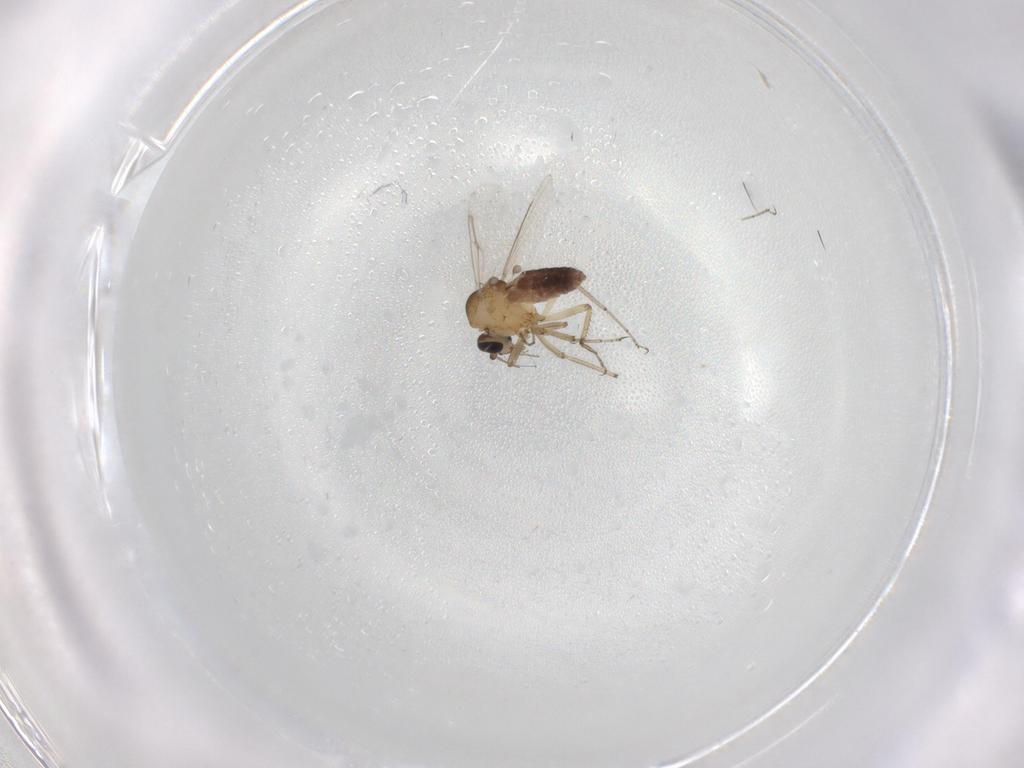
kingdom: Animalia
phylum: Arthropoda
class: Insecta
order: Diptera
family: Ceratopogonidae
